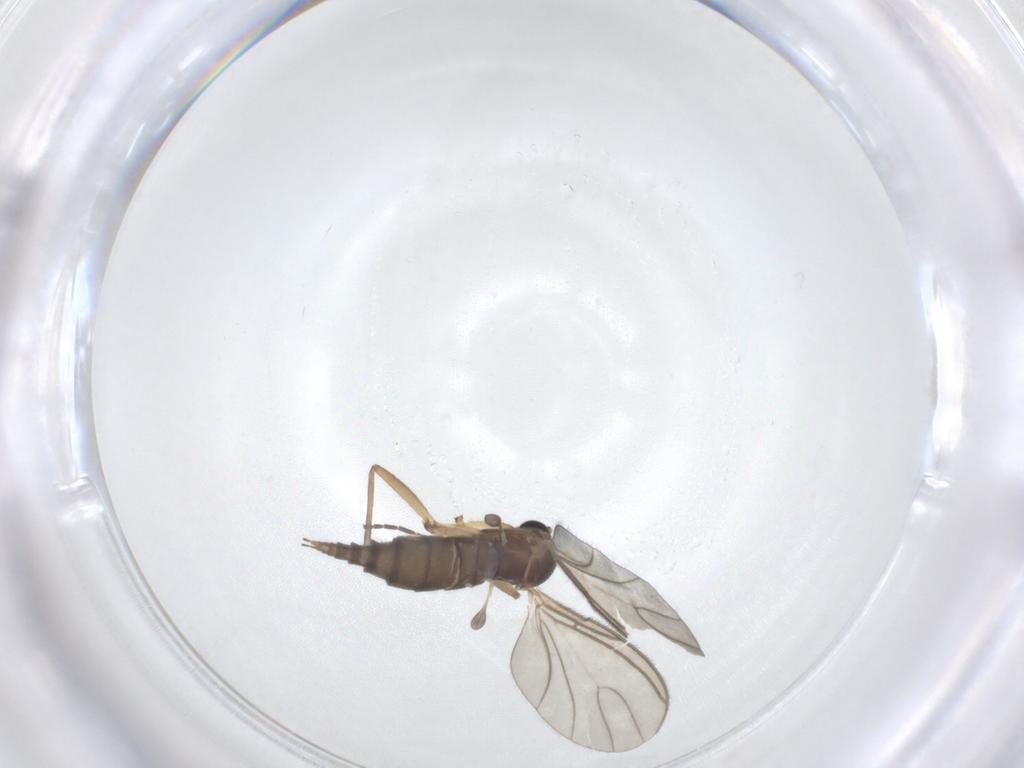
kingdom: Animalia
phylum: Arthropoda
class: Insecta
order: Diptera
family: Sciaridae
